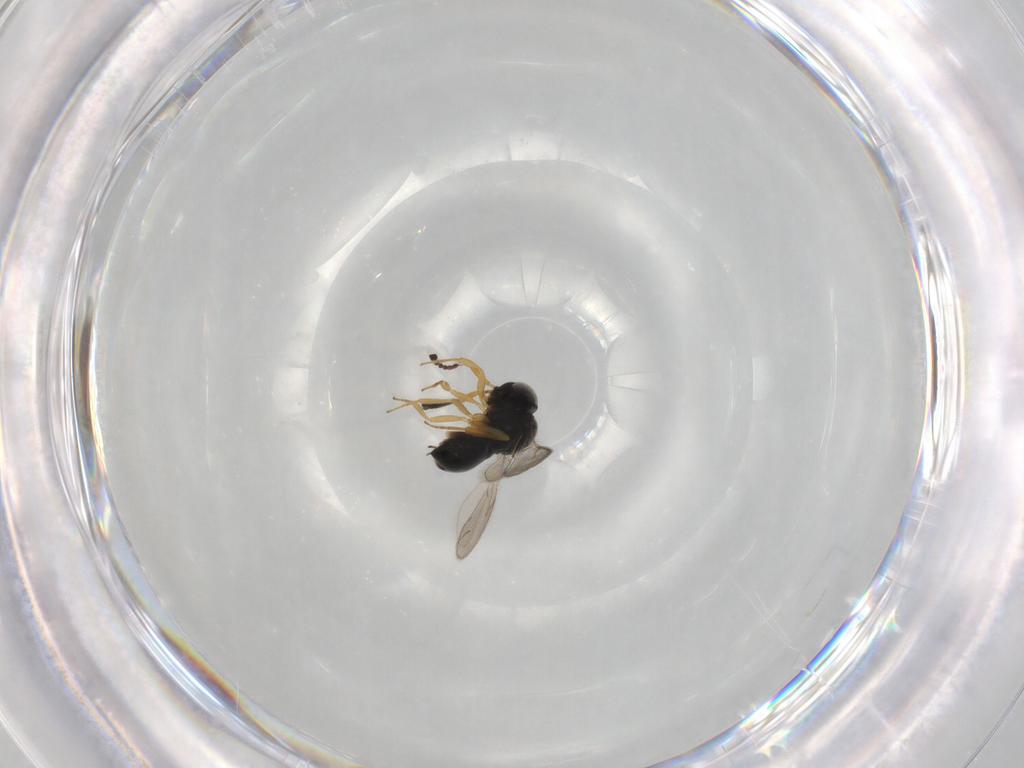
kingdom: Animalia
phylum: Arthropoda
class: Insecta
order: Hymenoptera
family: Scelionidae
